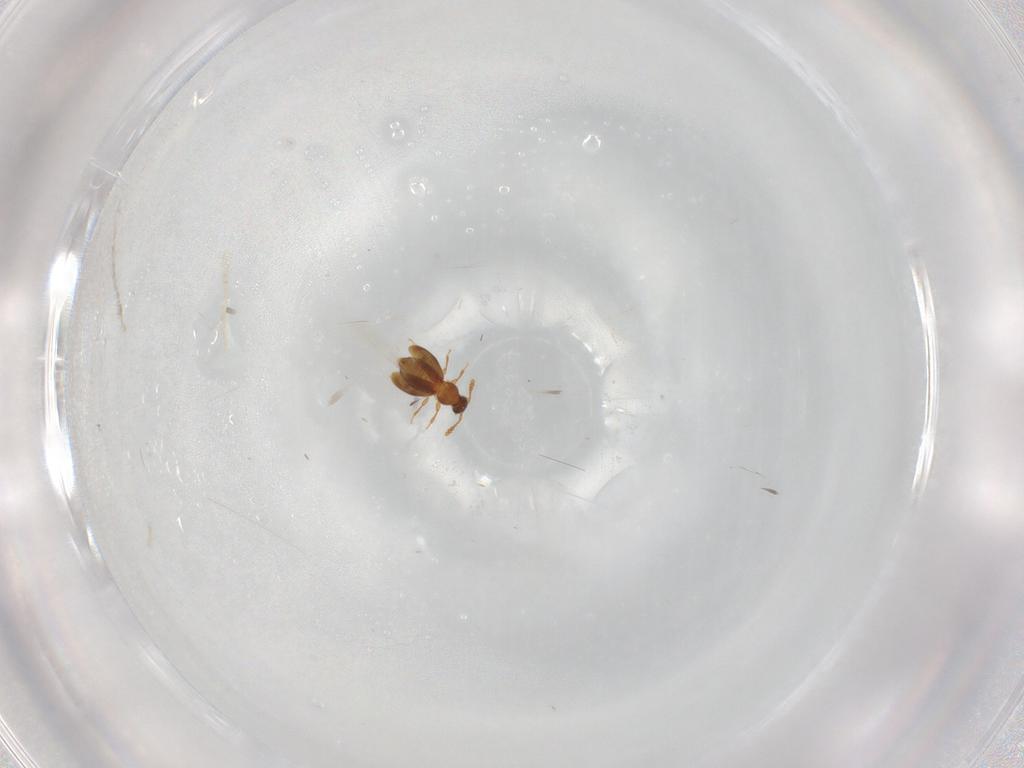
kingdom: Animalia
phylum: Arthropoda
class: Insecta
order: Coleoptera
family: Staphylinidae
